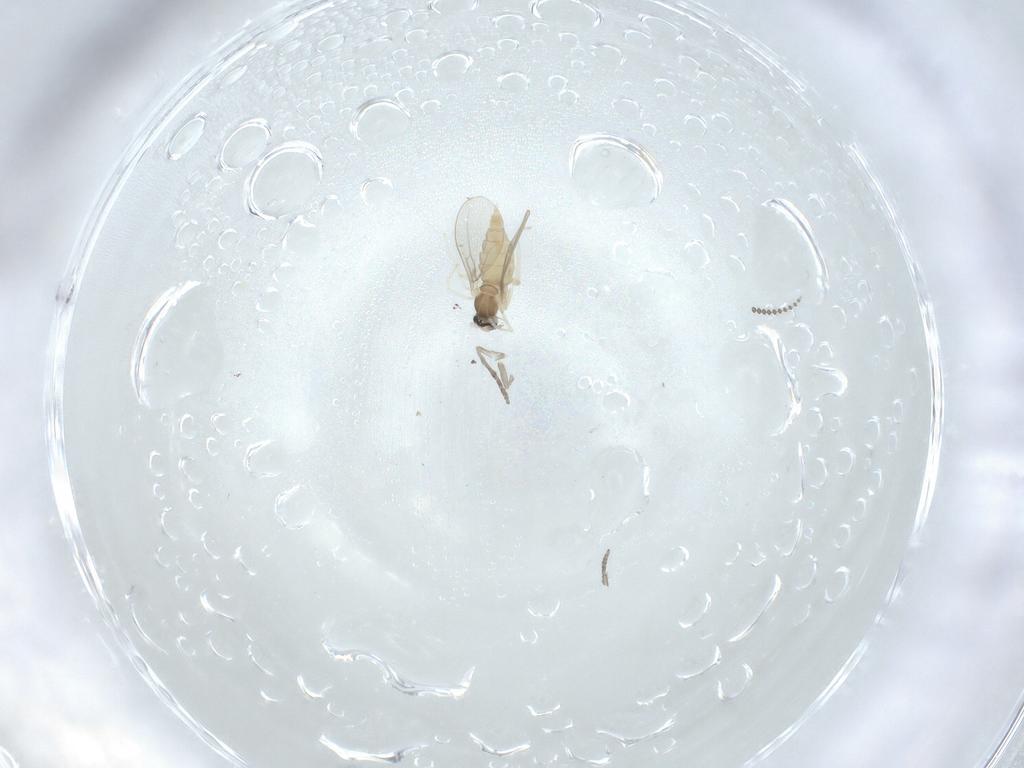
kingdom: Animalia
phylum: Arthropoda
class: Insecta
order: Diptera
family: Cecidomyiidae
